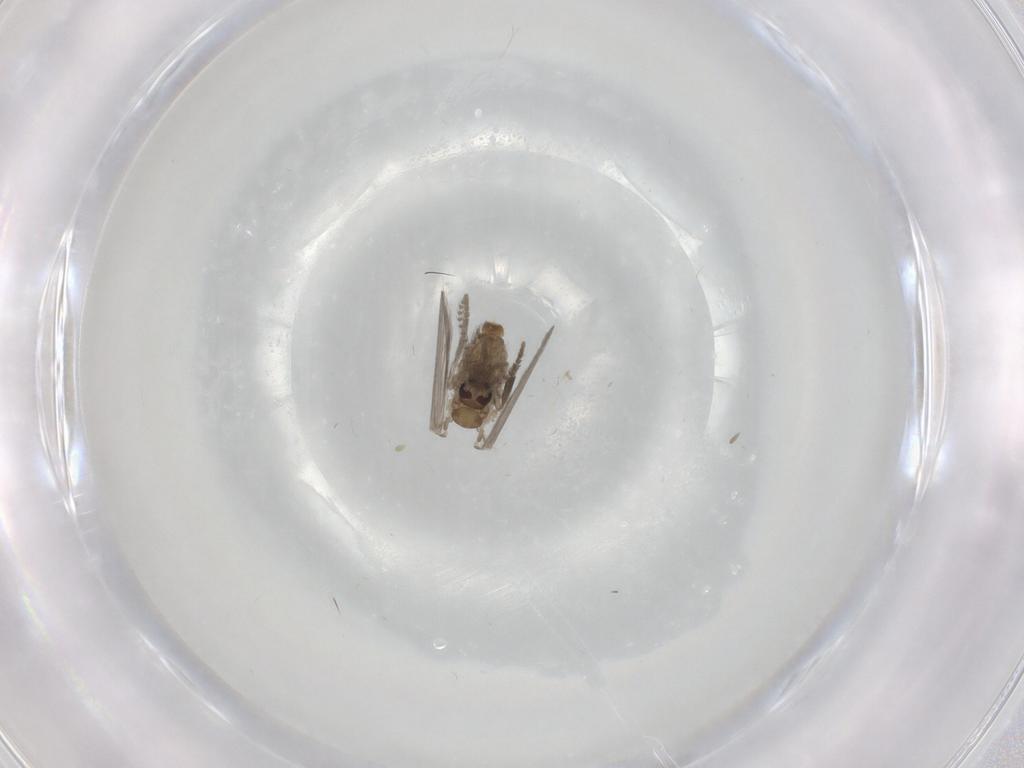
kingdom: Animalia
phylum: Arthropoda
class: Insecta
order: Diptera
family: Psychodidae
